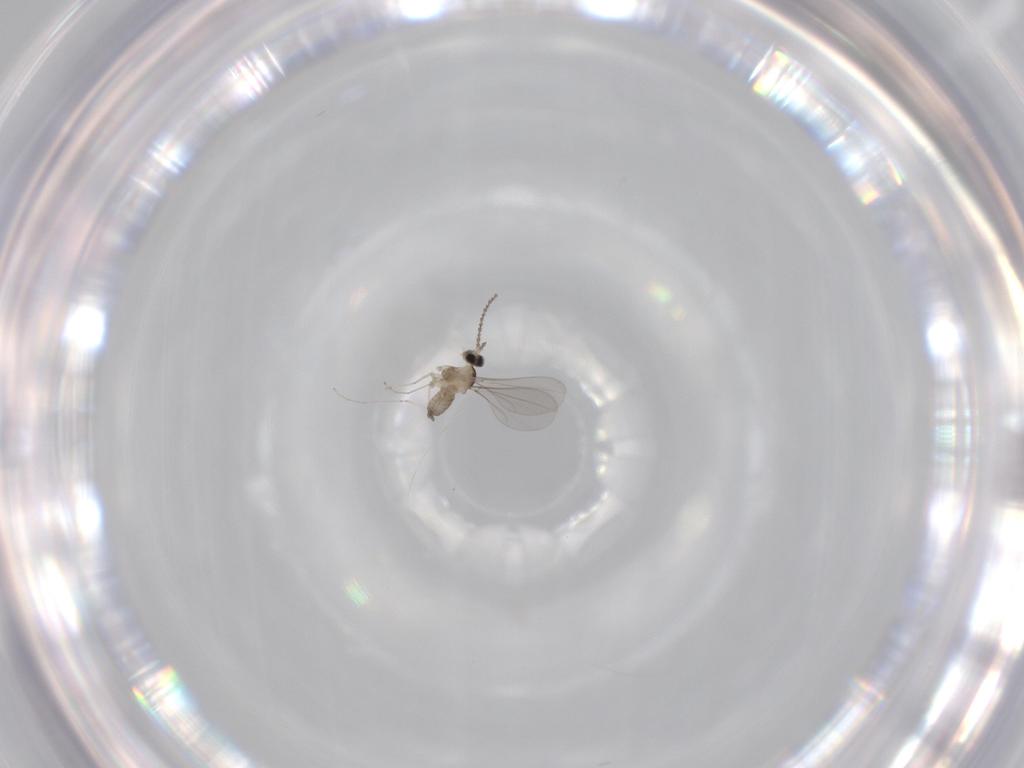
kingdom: Animalia
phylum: Arthropoda
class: Insecta
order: Diptera
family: Cecidomyiidae
